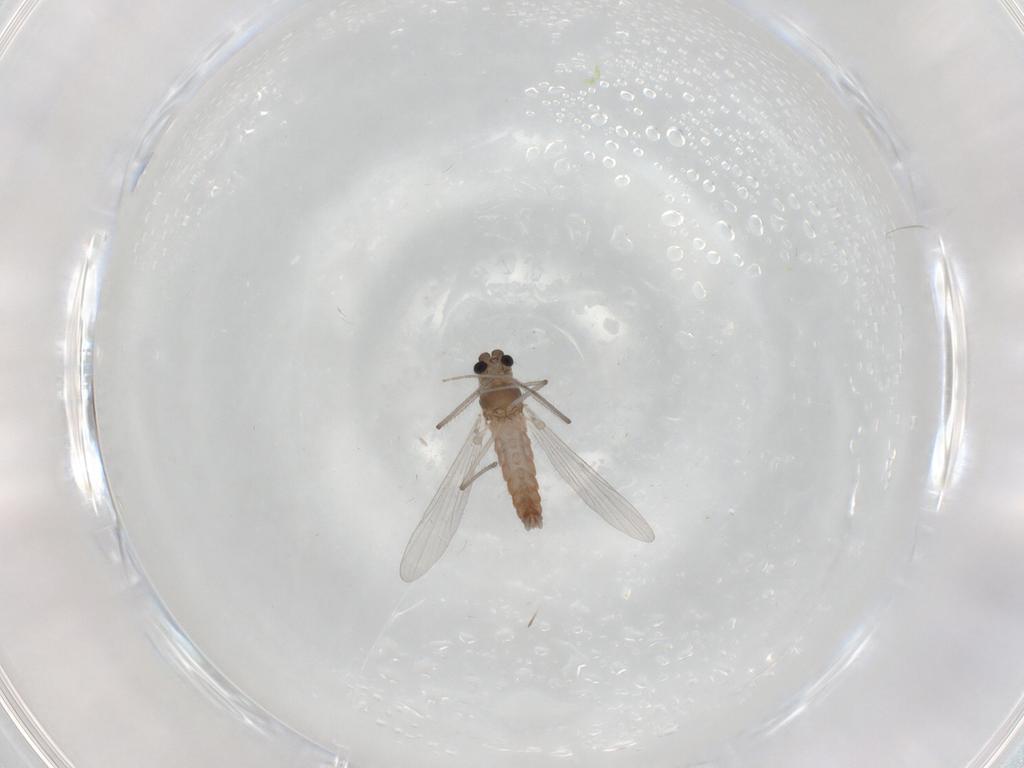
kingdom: Animalia
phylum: Arthropoda
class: Insecta
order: Diptera
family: Chironomidae
